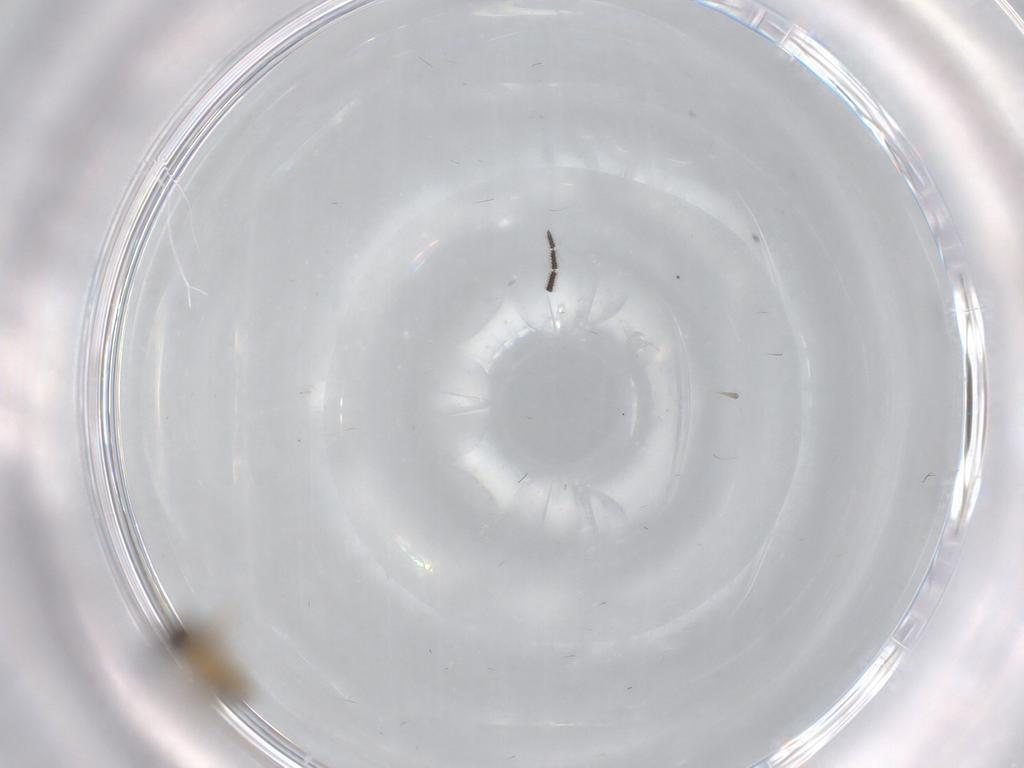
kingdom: Animalia
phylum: Arthropoda
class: Insecta
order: Diptera
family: Chironomidae
